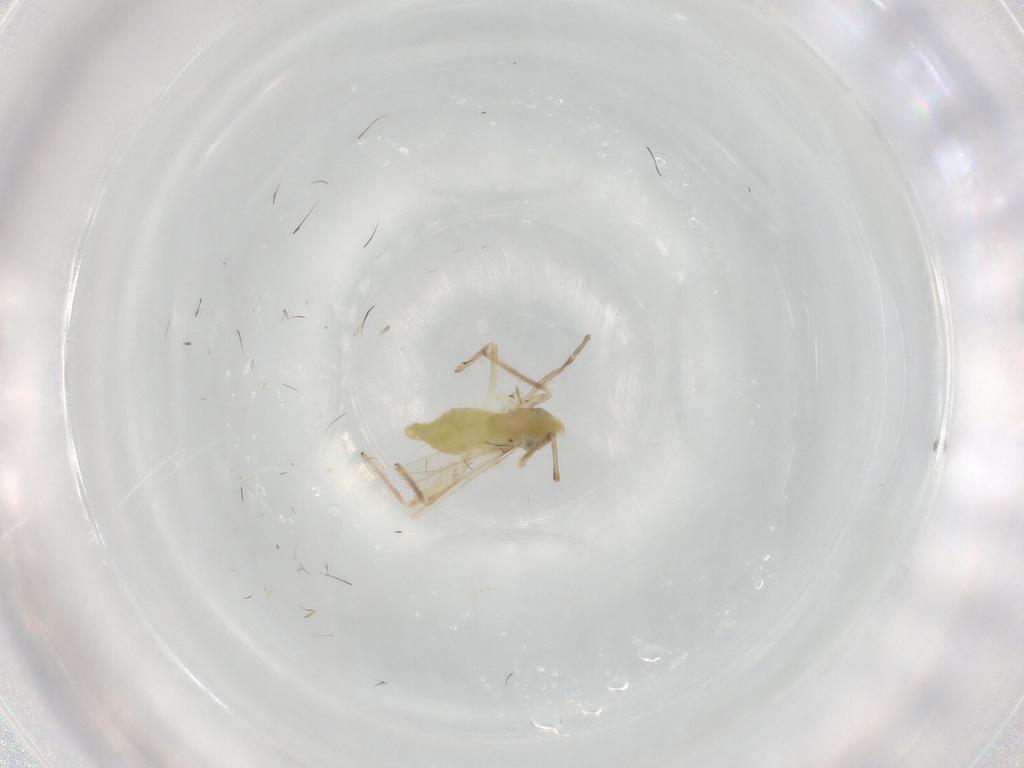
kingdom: Animalia
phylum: Arthropoda
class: Insecta
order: Diptera
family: Chironomidae
